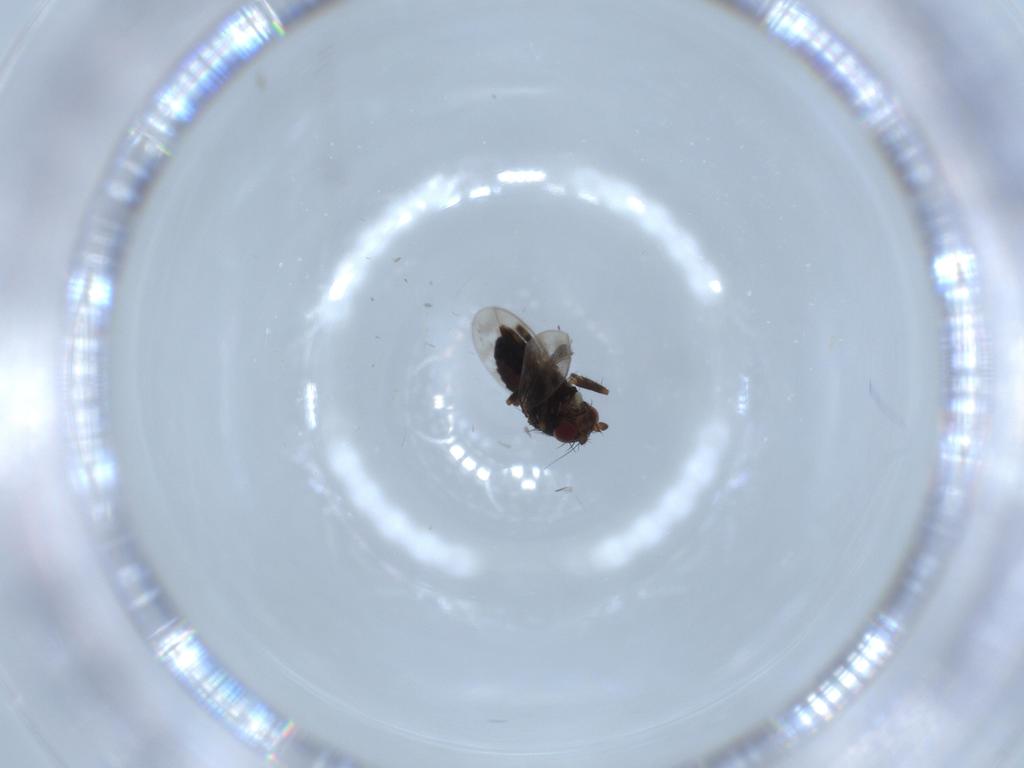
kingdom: Animalia
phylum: Arthropoda
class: Insecta
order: Diptera
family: Sphaeroceridae
